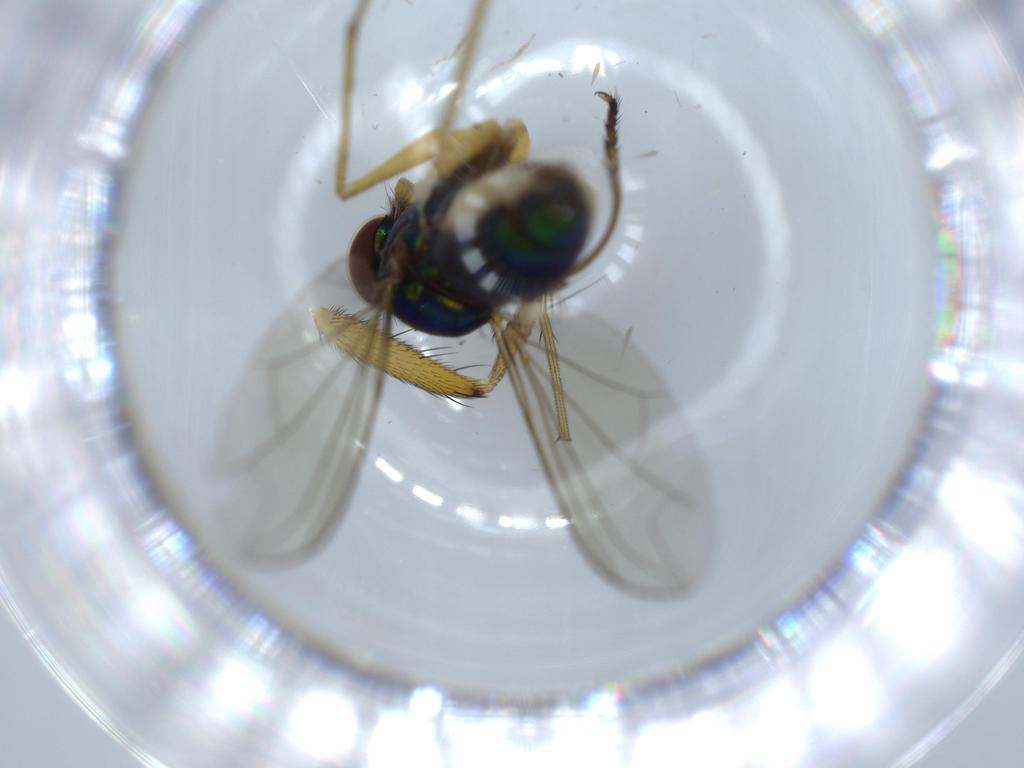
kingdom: Animalia
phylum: Arthropoda
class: Insecta
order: Diptera
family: Dolichopodidae
